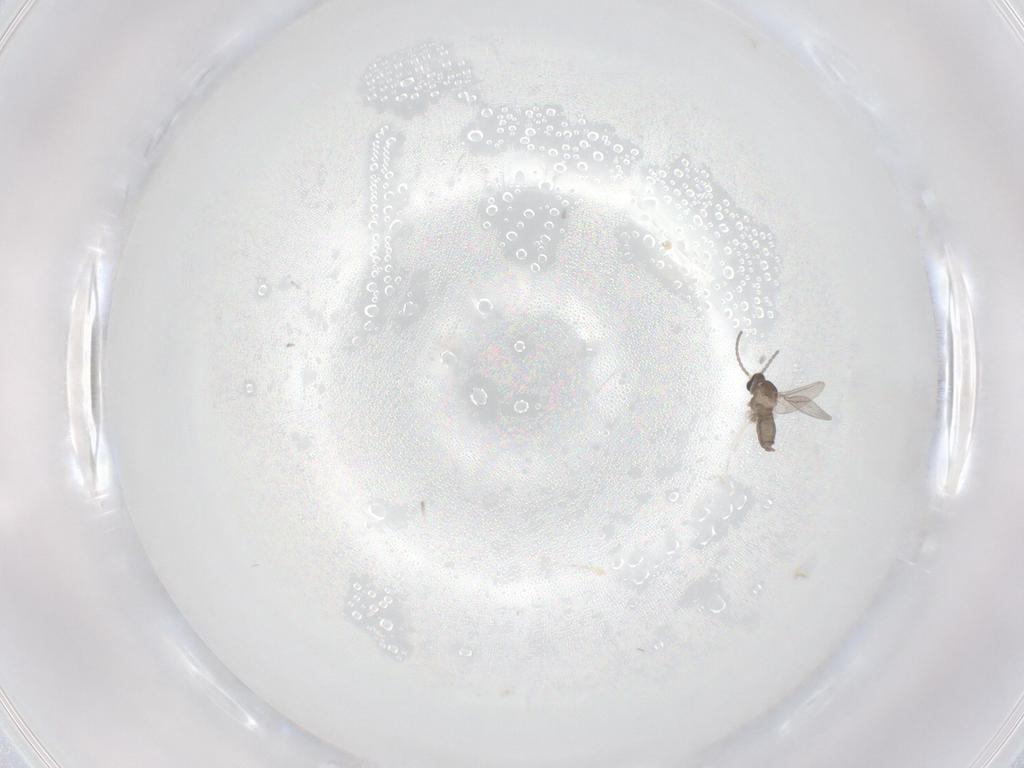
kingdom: Animalia
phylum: Arthropoda
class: Insecta
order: Diptera
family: Cecidomyiidae
